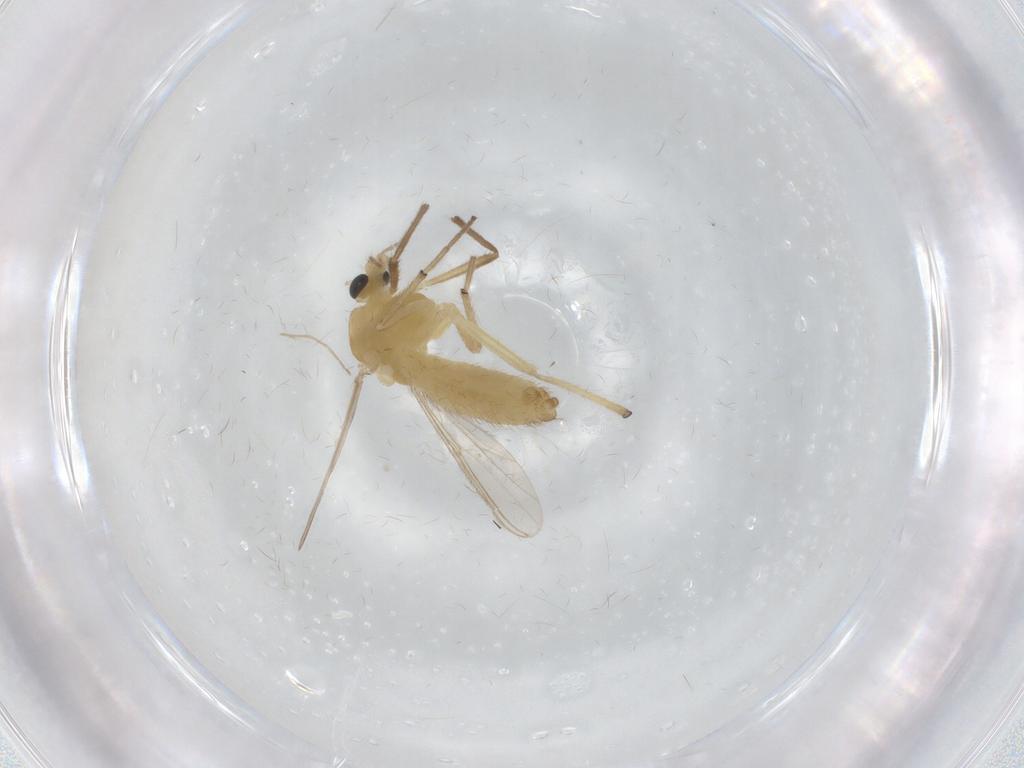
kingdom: Animalia
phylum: Arthropoda
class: Insecta
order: Diptera
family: Chironomidae
